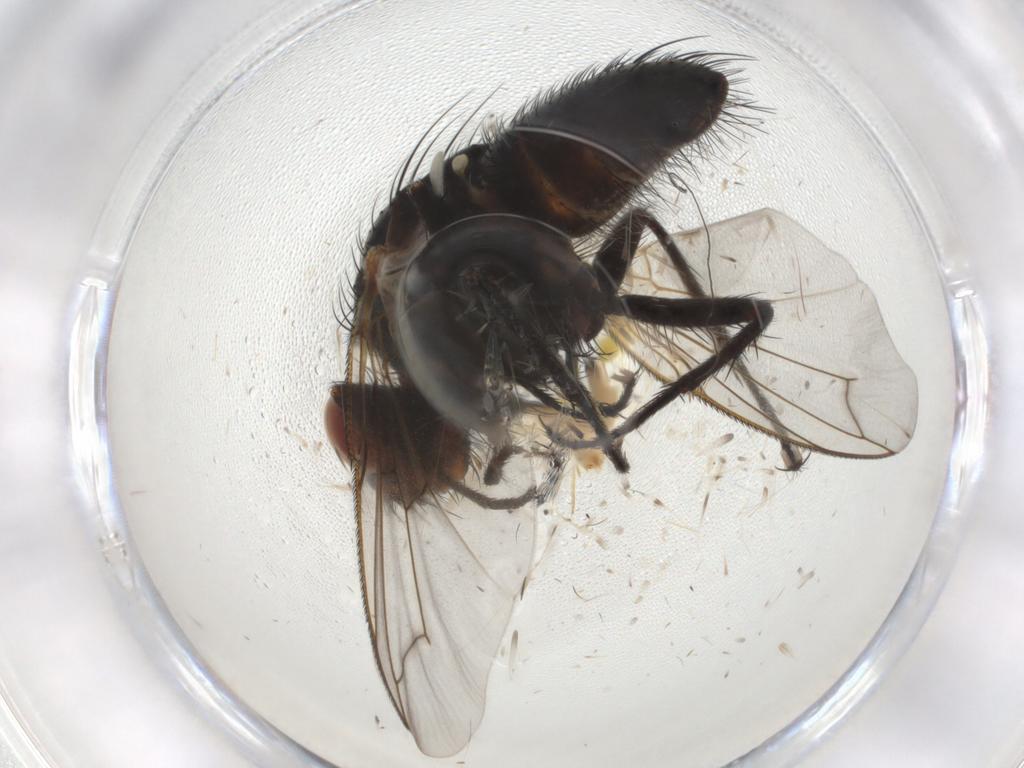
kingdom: Animalia
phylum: Arthropoda
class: Insecta
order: Diptera
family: Tachinidae
